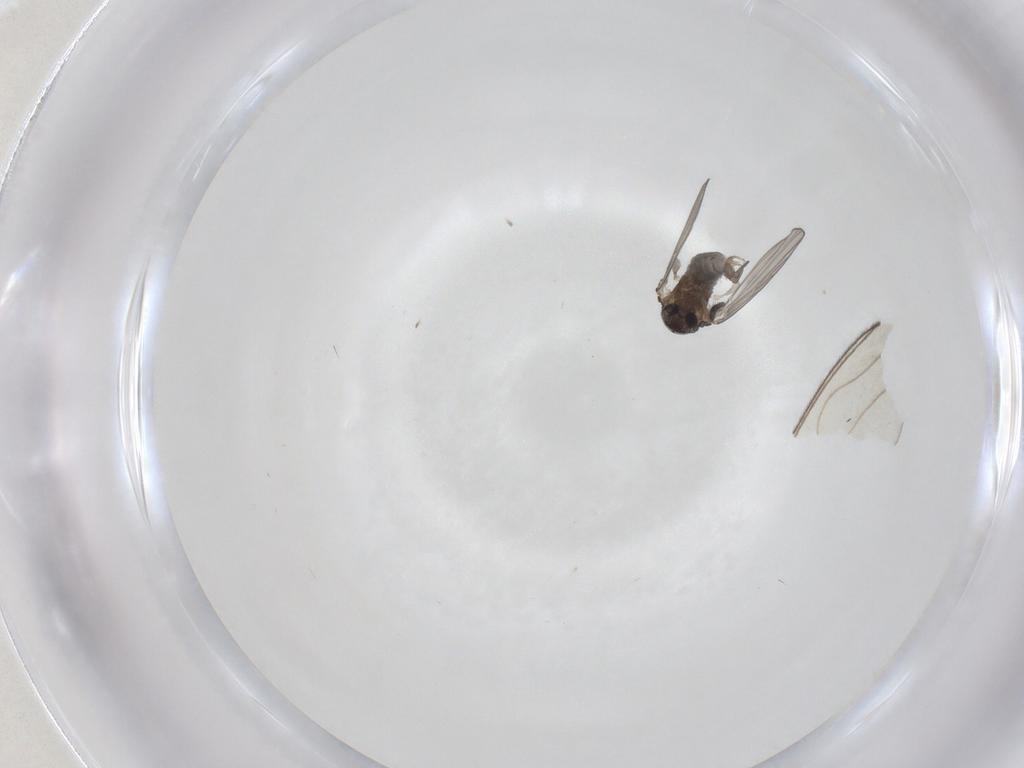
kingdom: Animalia
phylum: Arthropoda
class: Insecta
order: Diptera
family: Psychodidae
